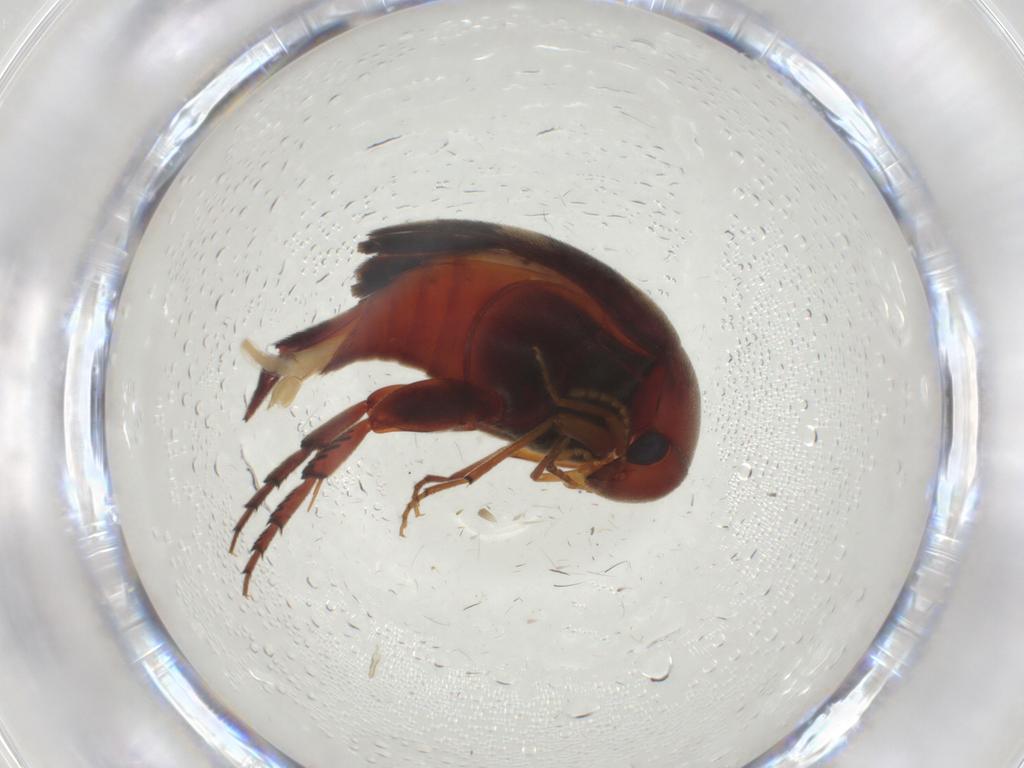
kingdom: Animalia
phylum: Arthropoda
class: Insecta
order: Coleoptera
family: Mordellidae
